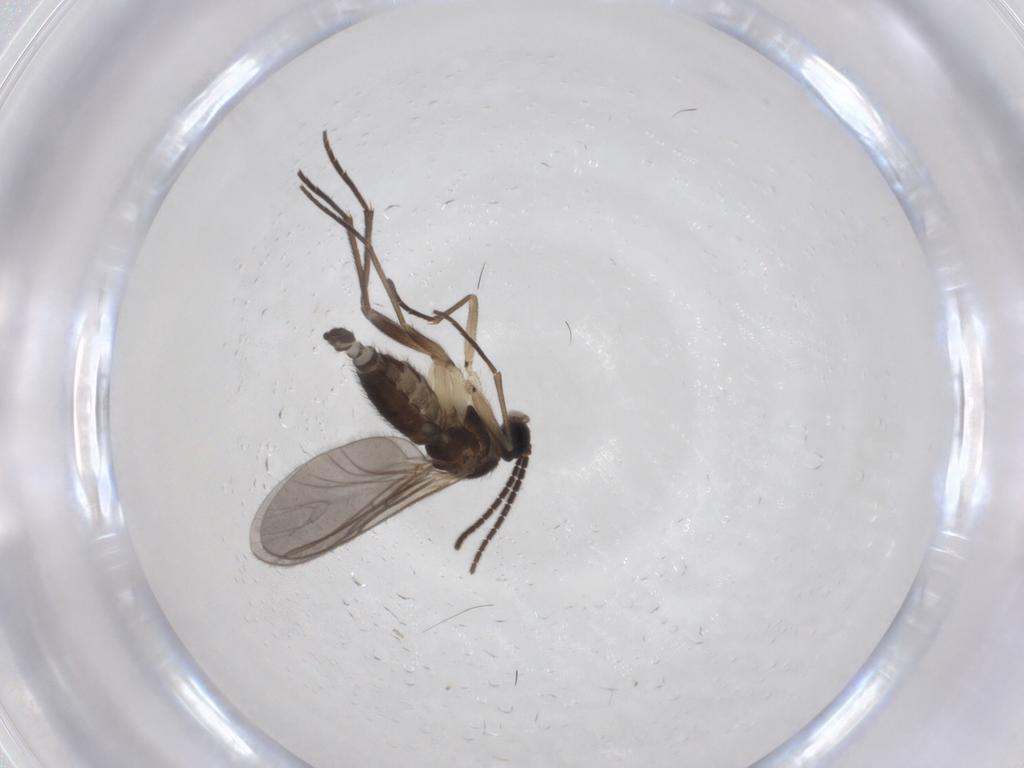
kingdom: Animalia
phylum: Arthropoda
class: Insecta
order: Diptera
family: Sciaridae
